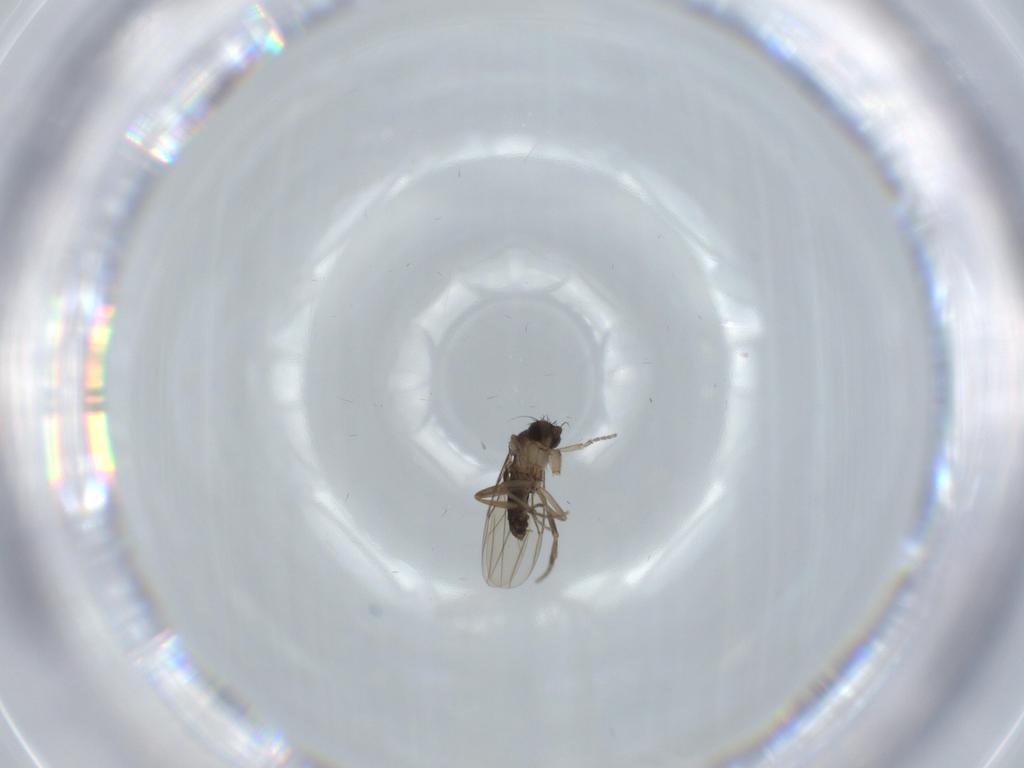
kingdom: Animalia
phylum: Arthropoda
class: Insecta
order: Diptera
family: Phoridae
